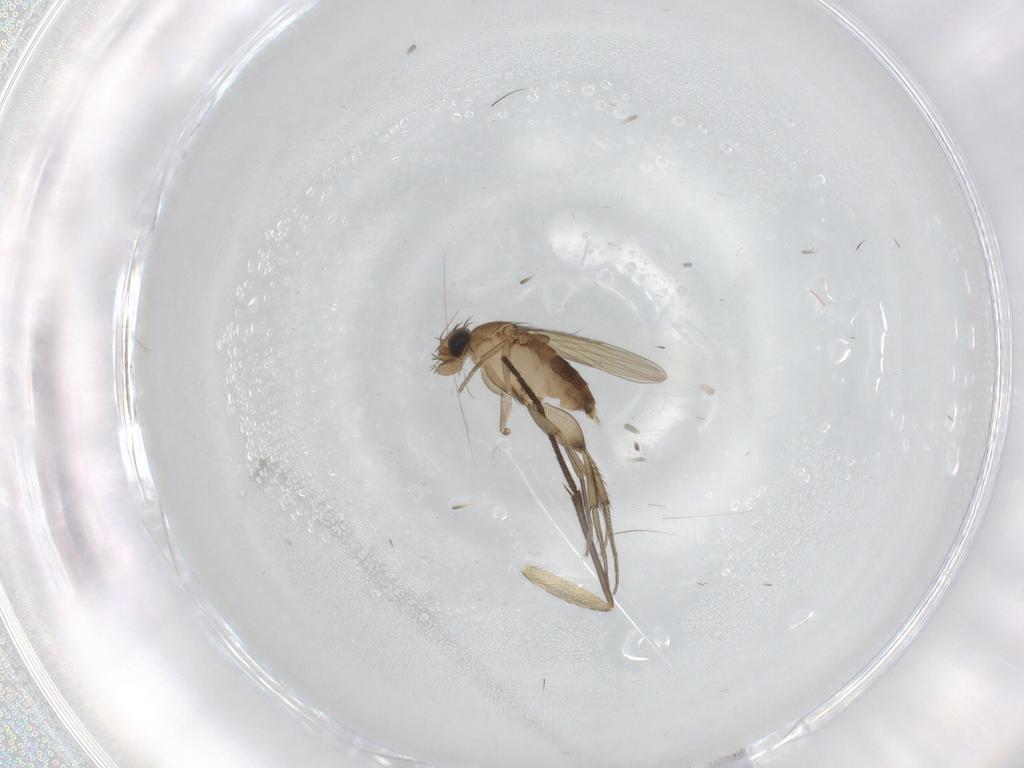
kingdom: Animalia
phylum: Arthropoda
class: Insecta
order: Diptera
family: Phoridae
